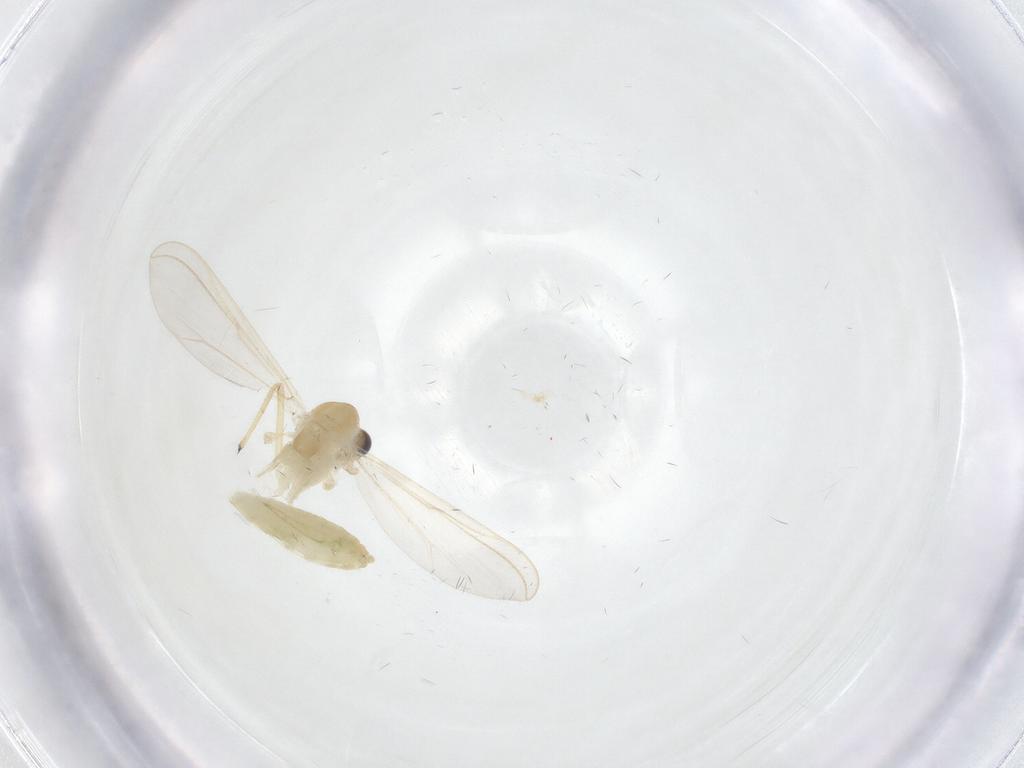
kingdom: Animalia
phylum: Arthropoda
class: Insecta
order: Diptera
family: Chironomidae
